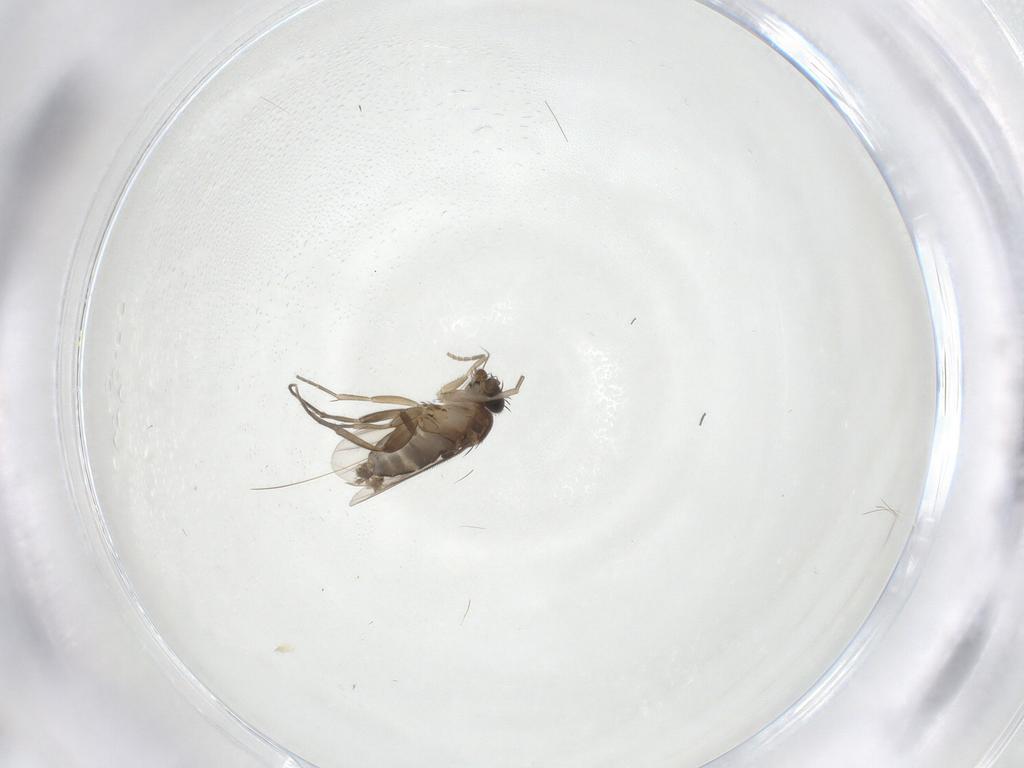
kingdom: Animalia
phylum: Arthropoda
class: Insecta
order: Diptera
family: Phoridae
